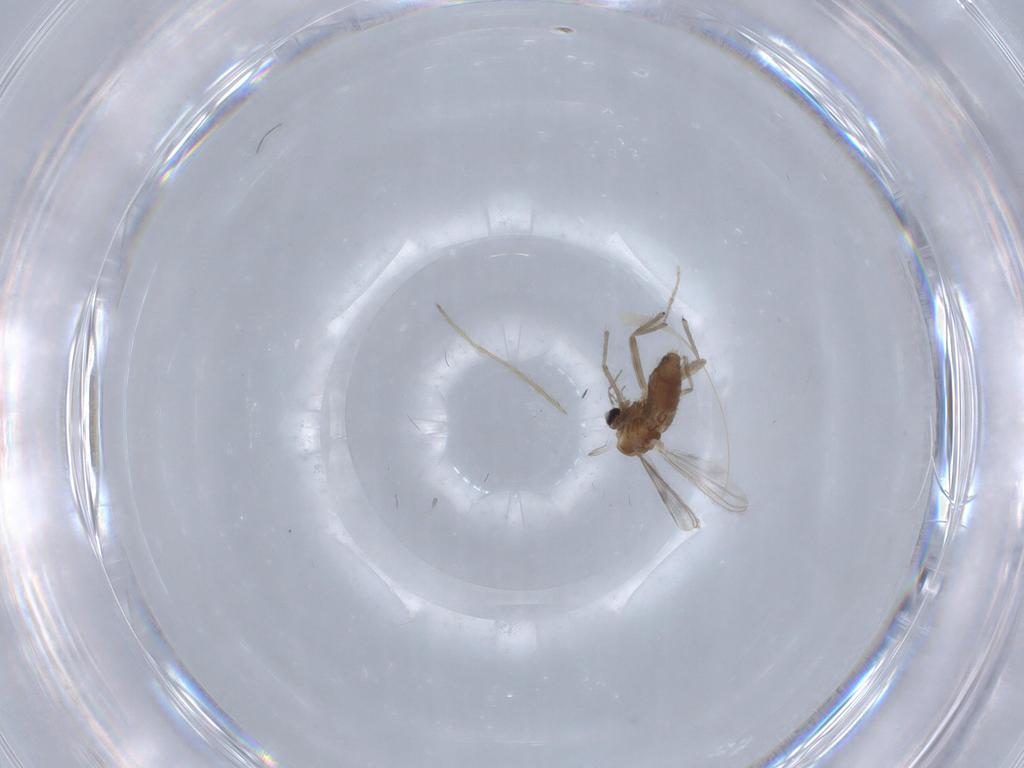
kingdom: Animalia
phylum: Arthropoda
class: Insecta
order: Diptera
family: Chironomidae
